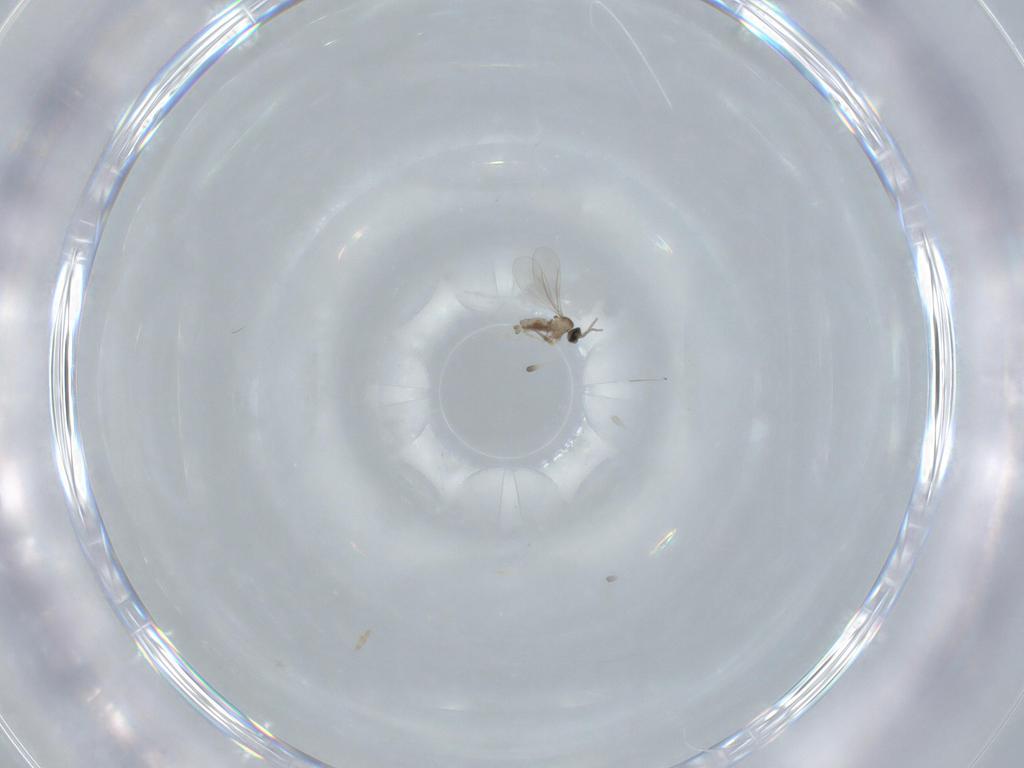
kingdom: Animalia
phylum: Arthropoda
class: Insecta
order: Diptera
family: Cecidomyiidae
